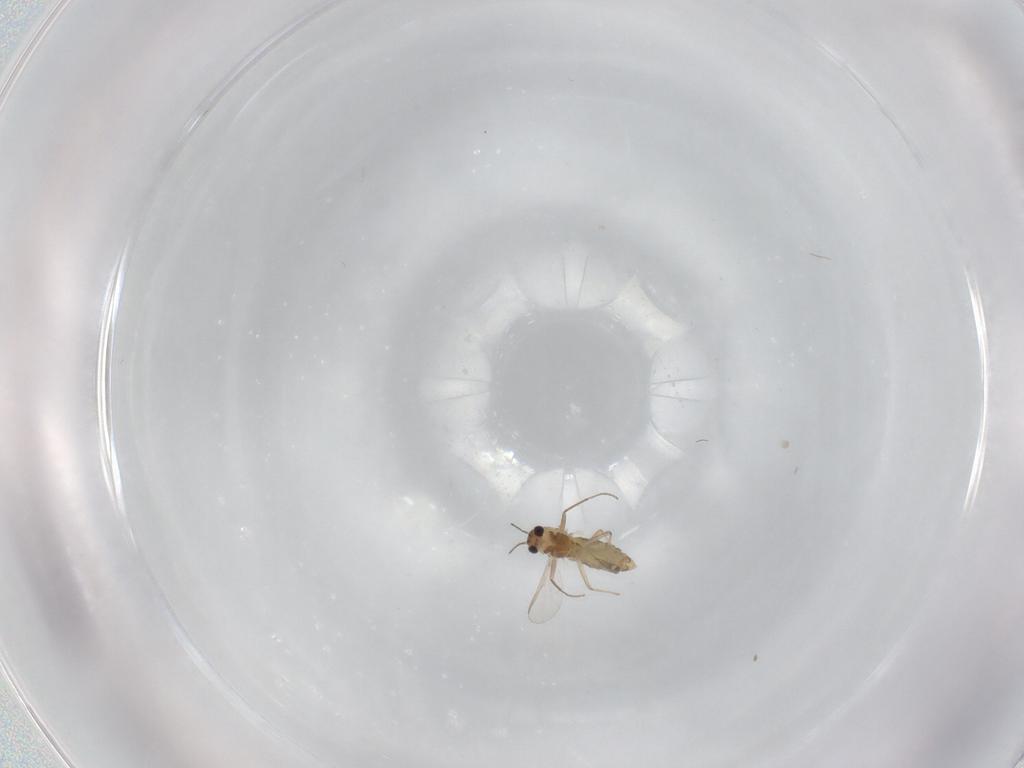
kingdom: Animalia
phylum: Arthropoda
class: Insecta
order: Diptera
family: Chironomidae
